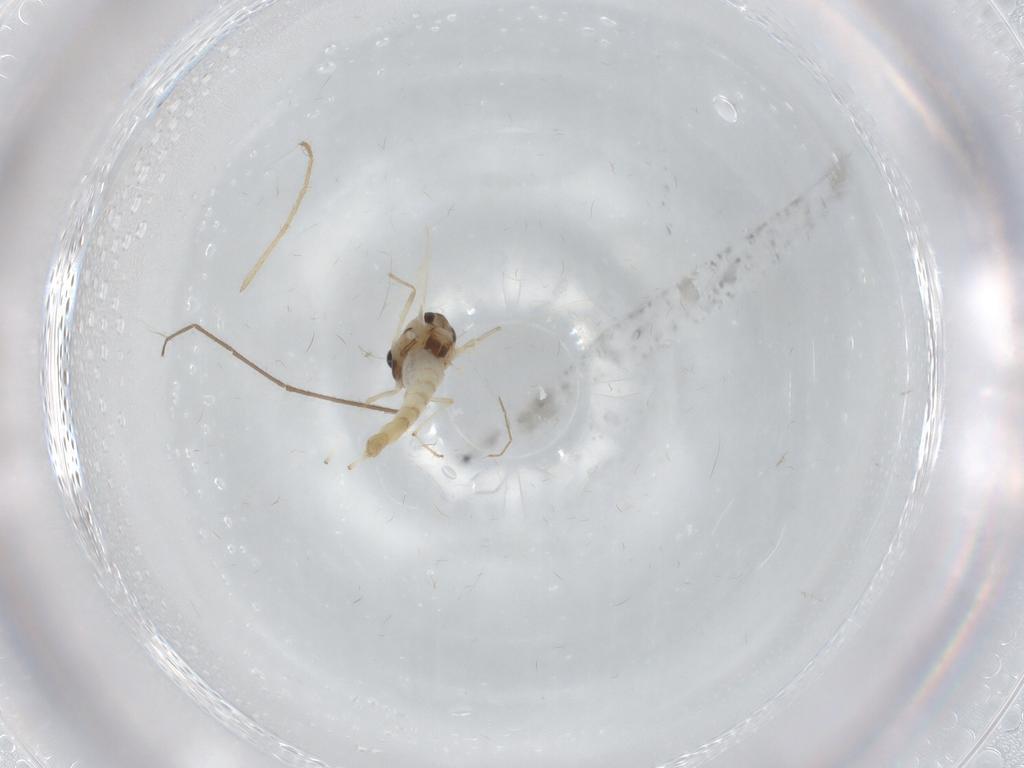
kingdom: Animalia
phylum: Arthropoda
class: Insecta
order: Diptera
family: Chironomidae
